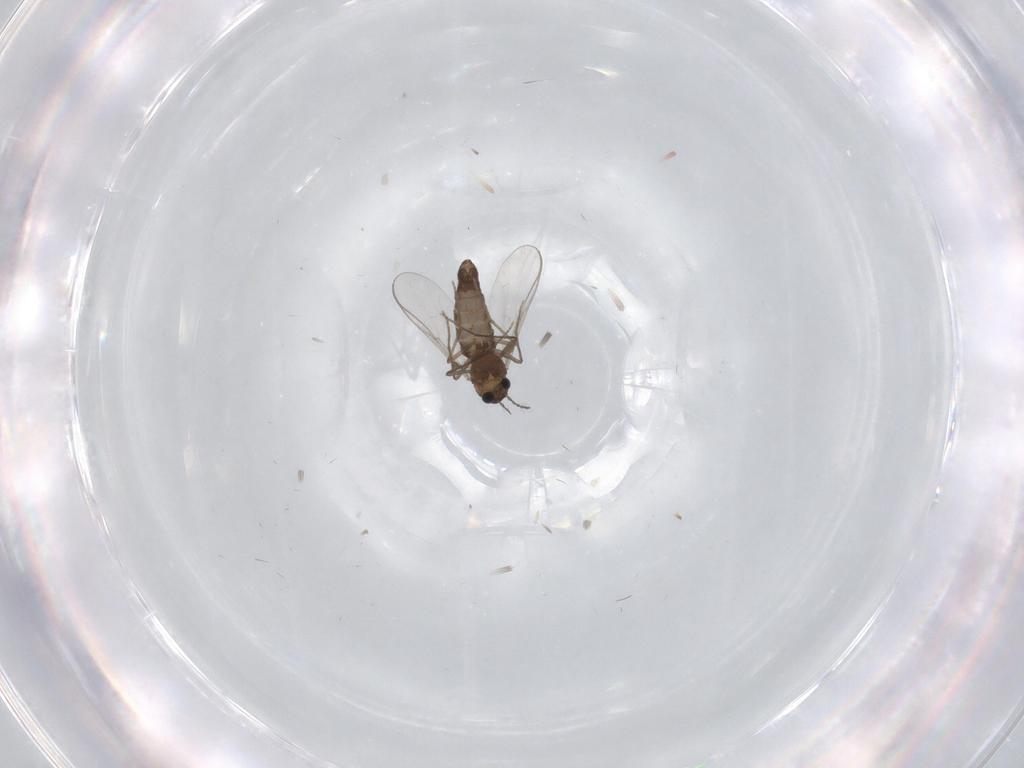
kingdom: Animalia
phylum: Arthropoda
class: Insecta
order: Diptera
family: Chironomidae
